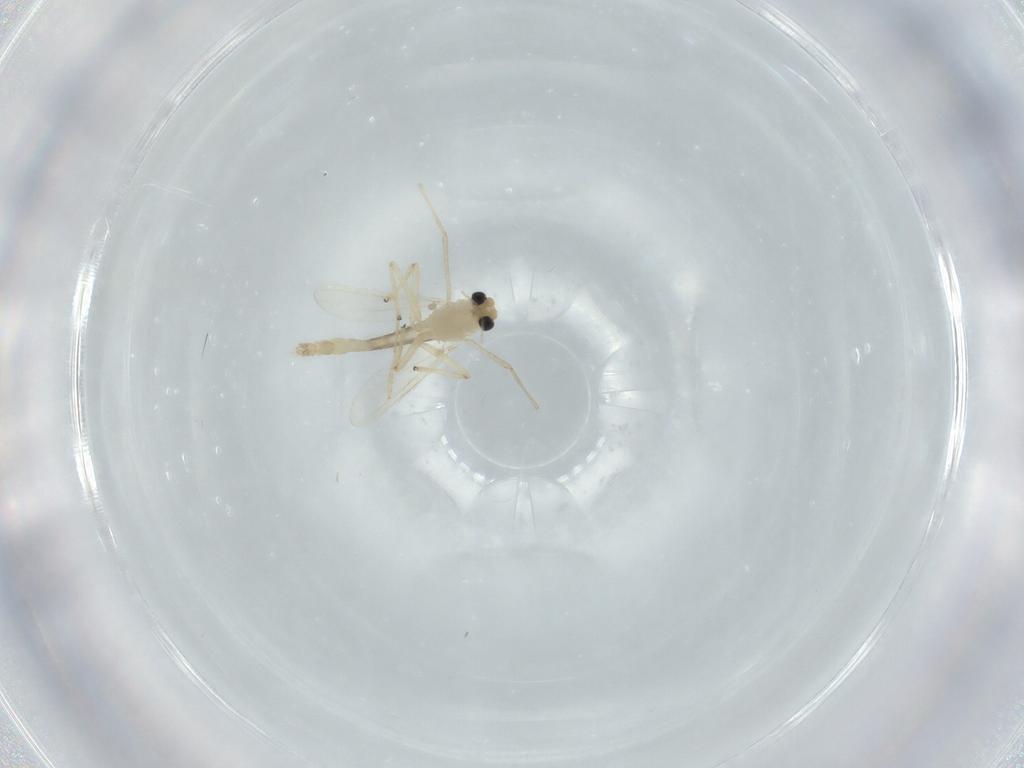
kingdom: Animalia
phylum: Arthropoda
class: Insecta
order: Diptera
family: Chironomidae
